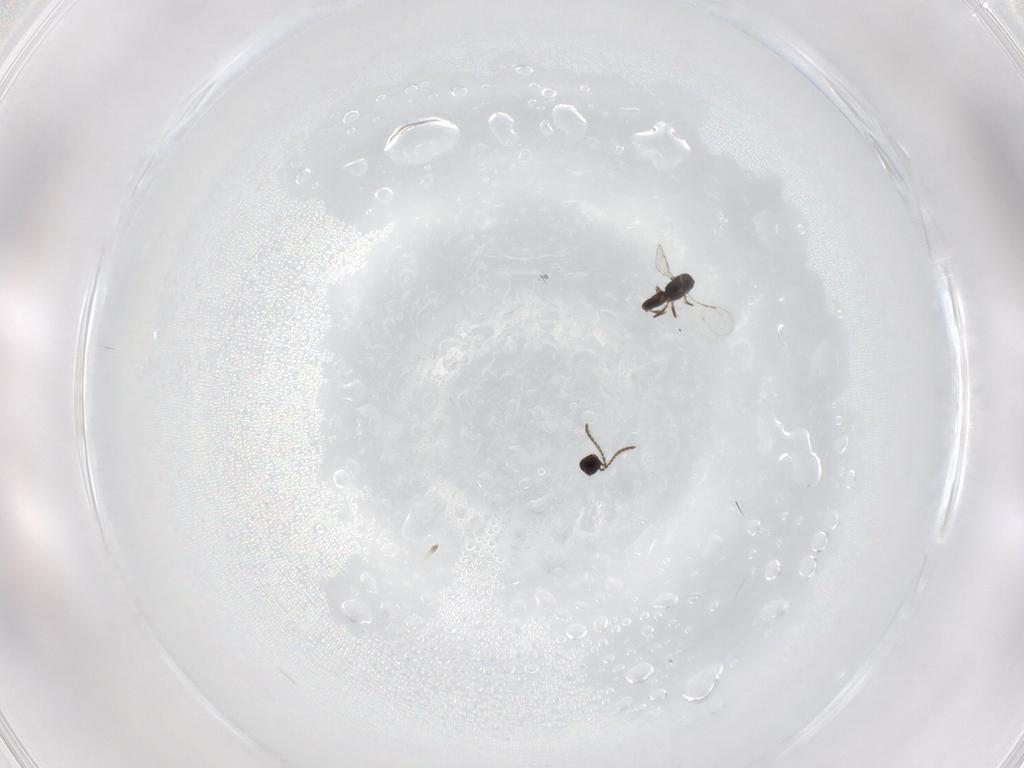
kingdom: Animalia
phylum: Arthropoda
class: Insecta
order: Hymenoptera
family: Eulophidae
